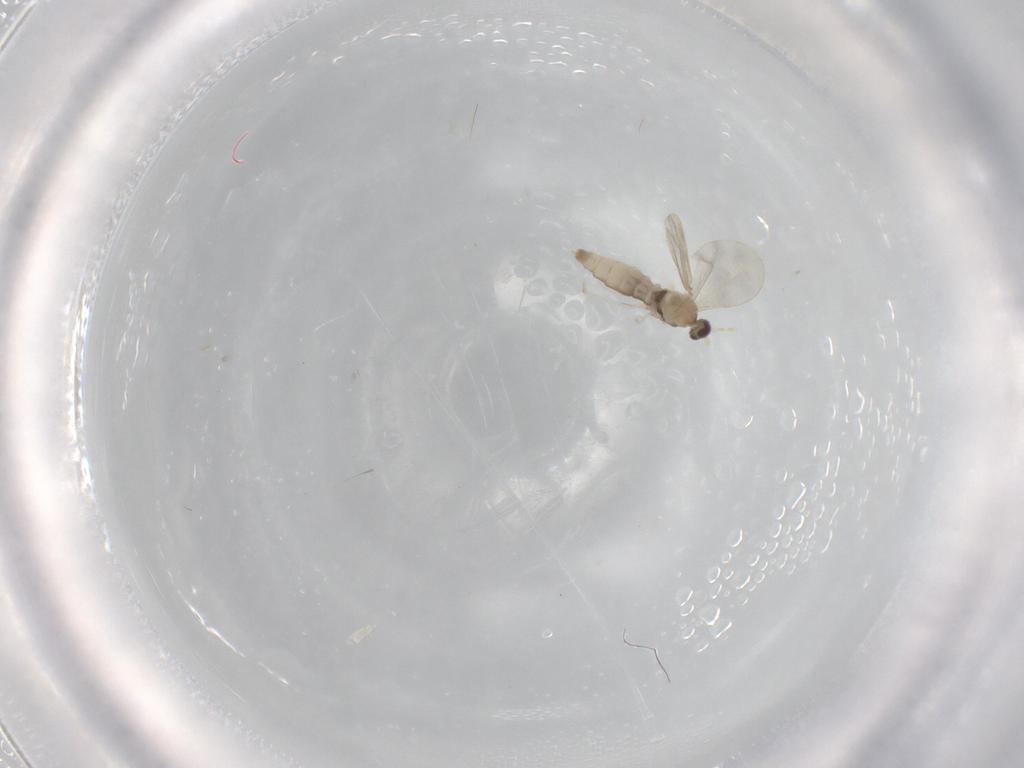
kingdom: Animalia
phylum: Arthropoda
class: Insecta
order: Diptera
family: Cecidomyiidae
